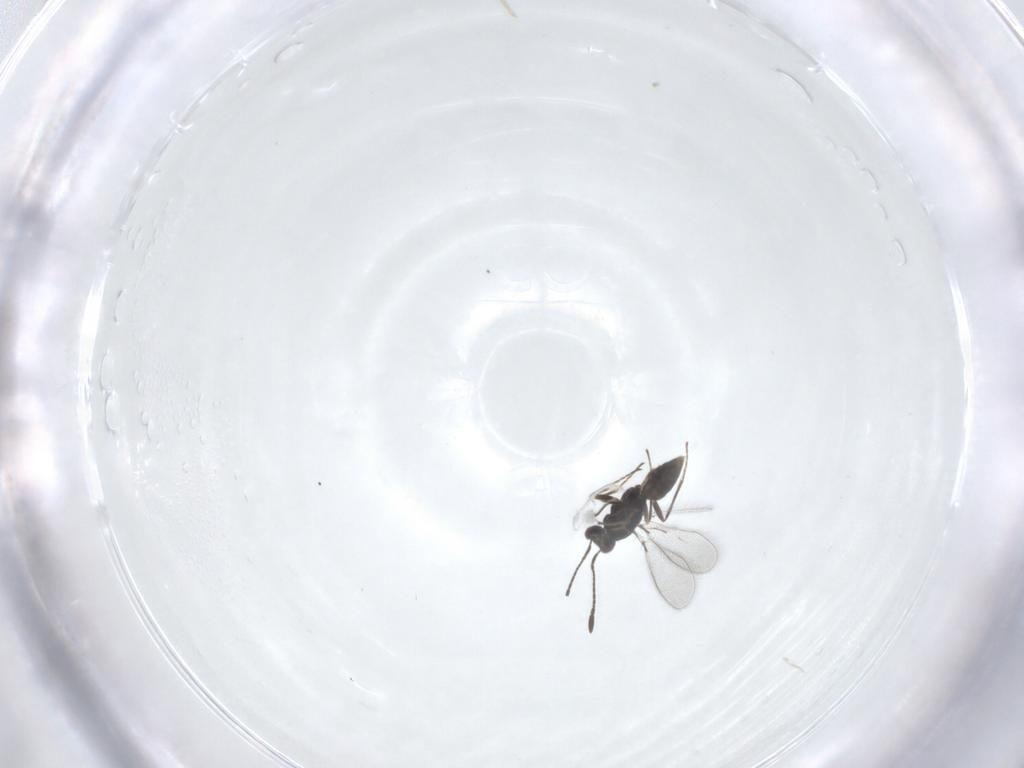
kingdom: Animalia
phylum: Arthropoda
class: Insecta
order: Hymenoptera
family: Mymaridae
